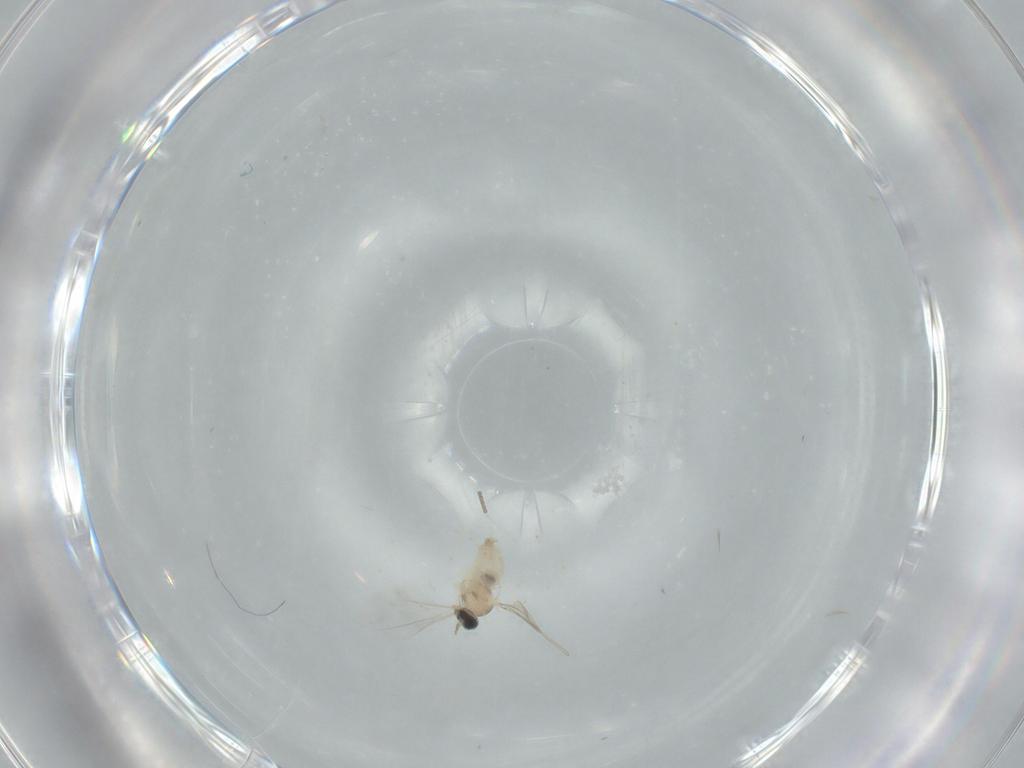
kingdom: Animalia
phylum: Arthropoda
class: Insecta
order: Diptera
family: Cecidomyiidae
